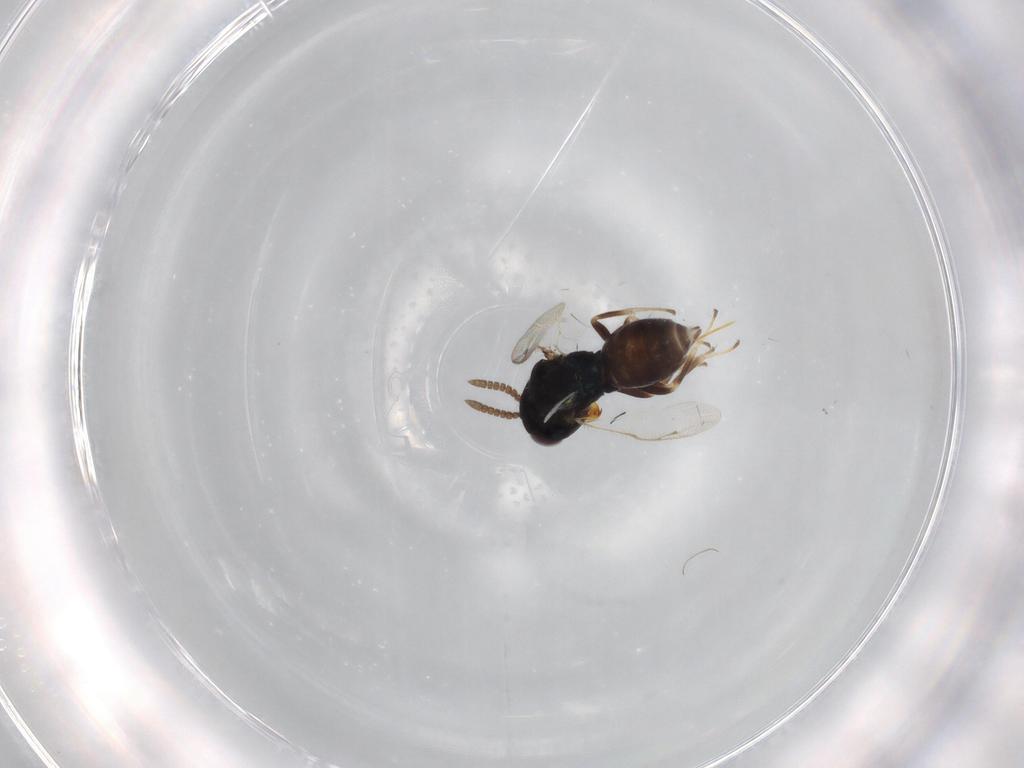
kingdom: Animalia
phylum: Arthropoda
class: Insecta
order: Hymenoptera
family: Pteromalidae
